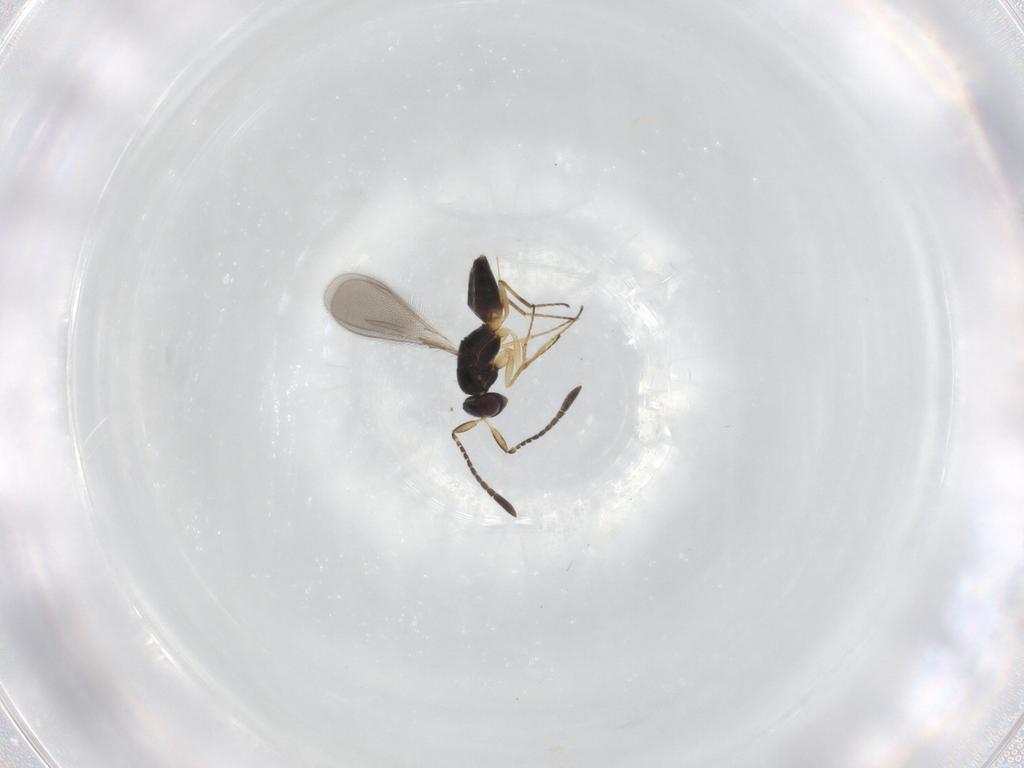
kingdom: Animalia
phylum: Arthropoda
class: Insecta
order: Hymenoptera
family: Mymaridae
